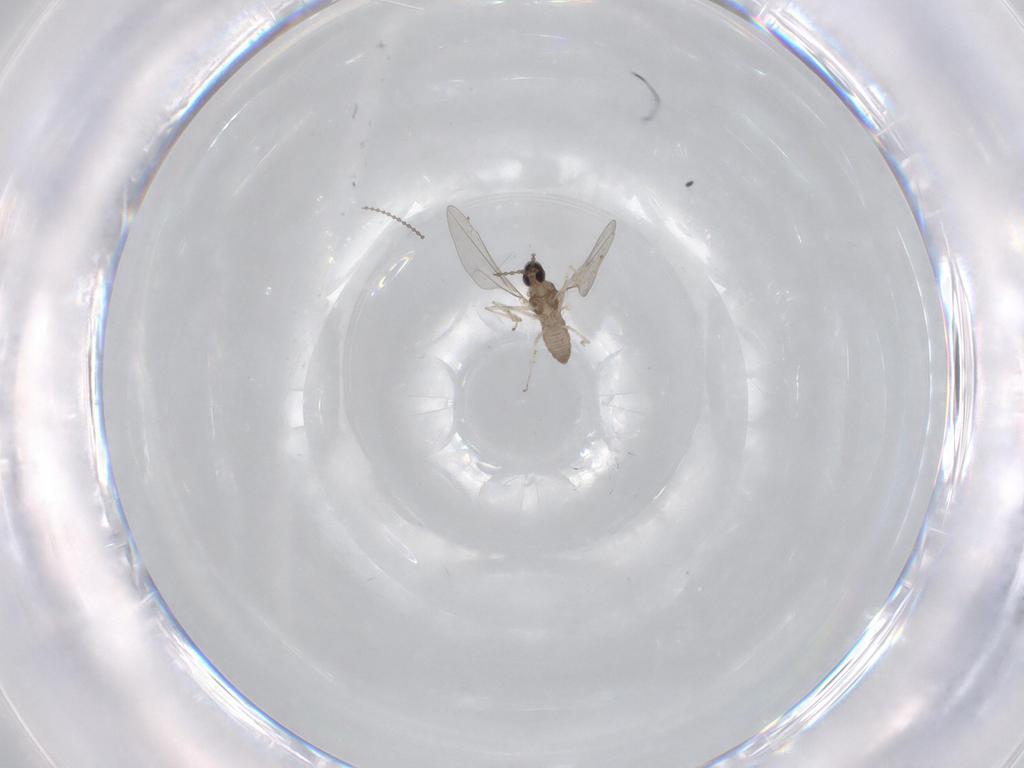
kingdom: Animalia
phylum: Arthropoda
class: Insecta
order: Diptera
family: Cecidomyiidae
